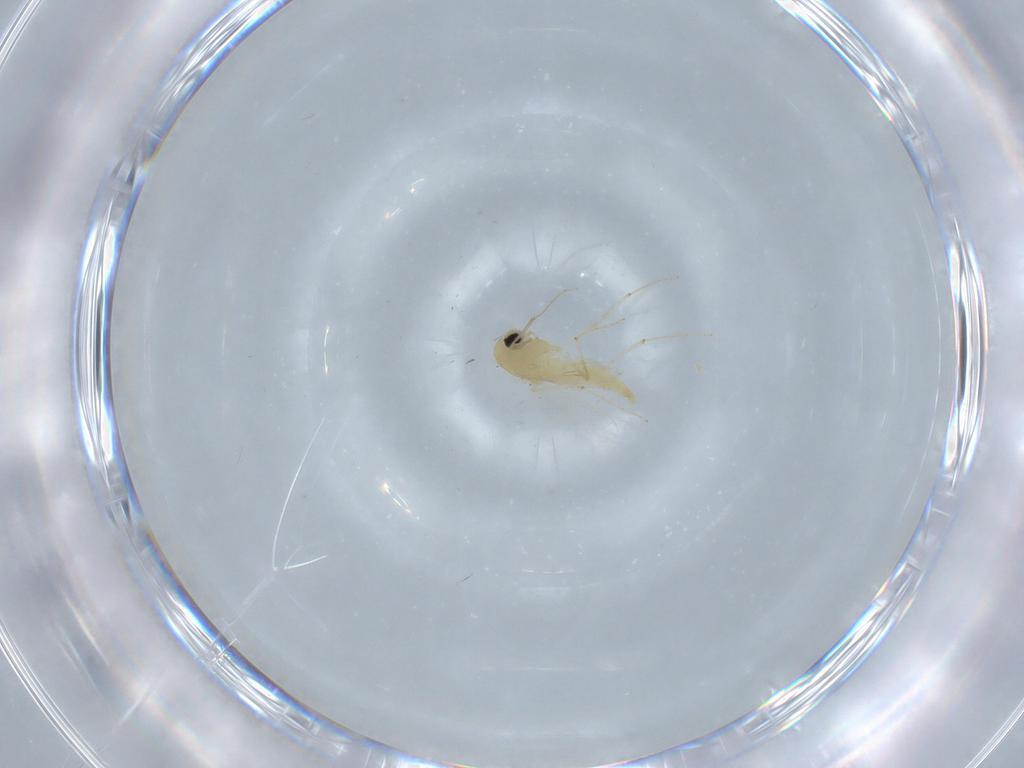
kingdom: Animalia
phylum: Arthropoda
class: Insecta
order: Diptera
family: Chironomidae
